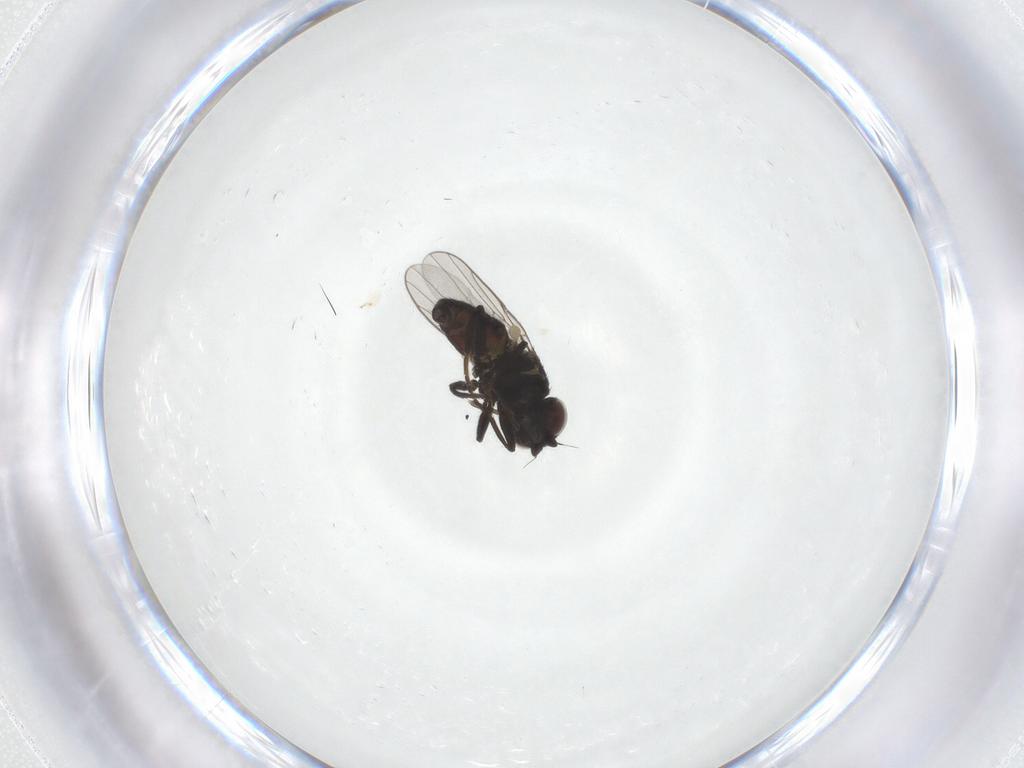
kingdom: Animalia
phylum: Arthropoda
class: Insecta
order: Diptera
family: Chloropidae
